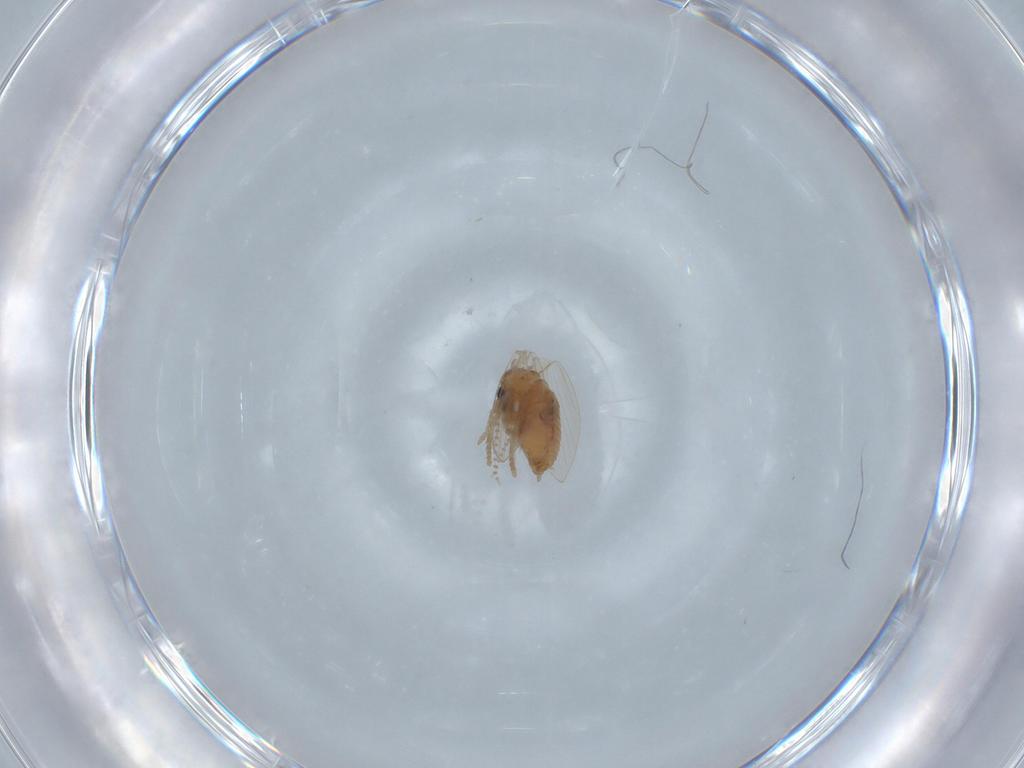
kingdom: Animalia
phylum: Arthropoda
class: Insecta
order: Diptera
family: Psychodidae
